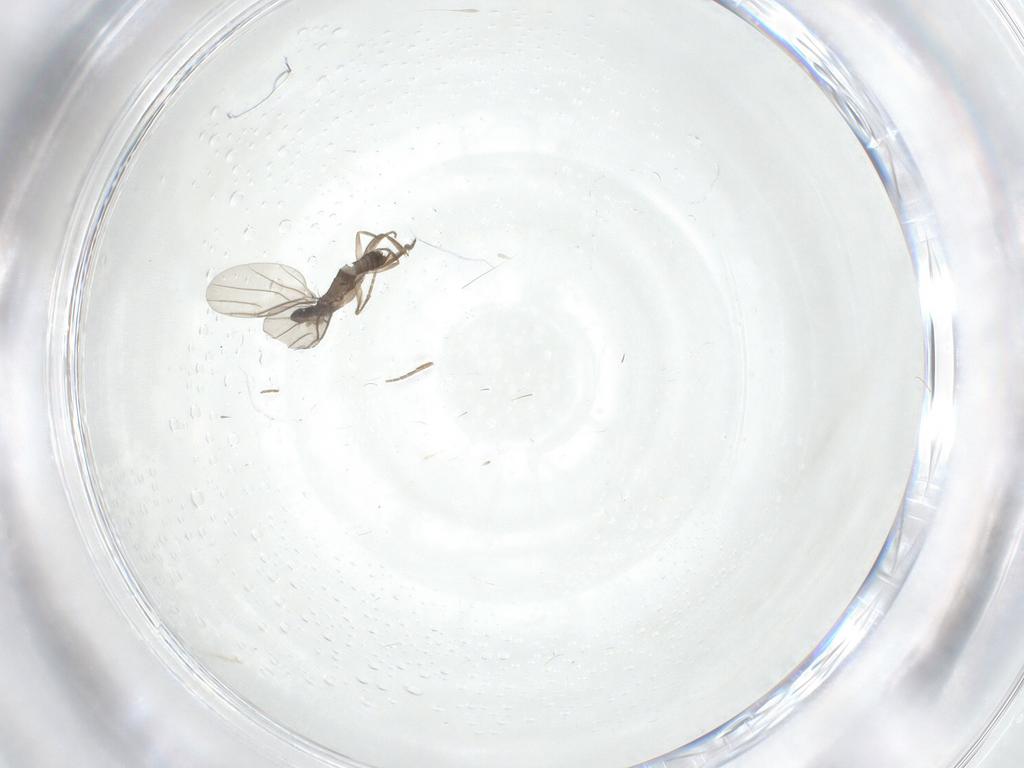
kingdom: Animalia
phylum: Arthropoda
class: Insecta
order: Diptera
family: Phoridae
